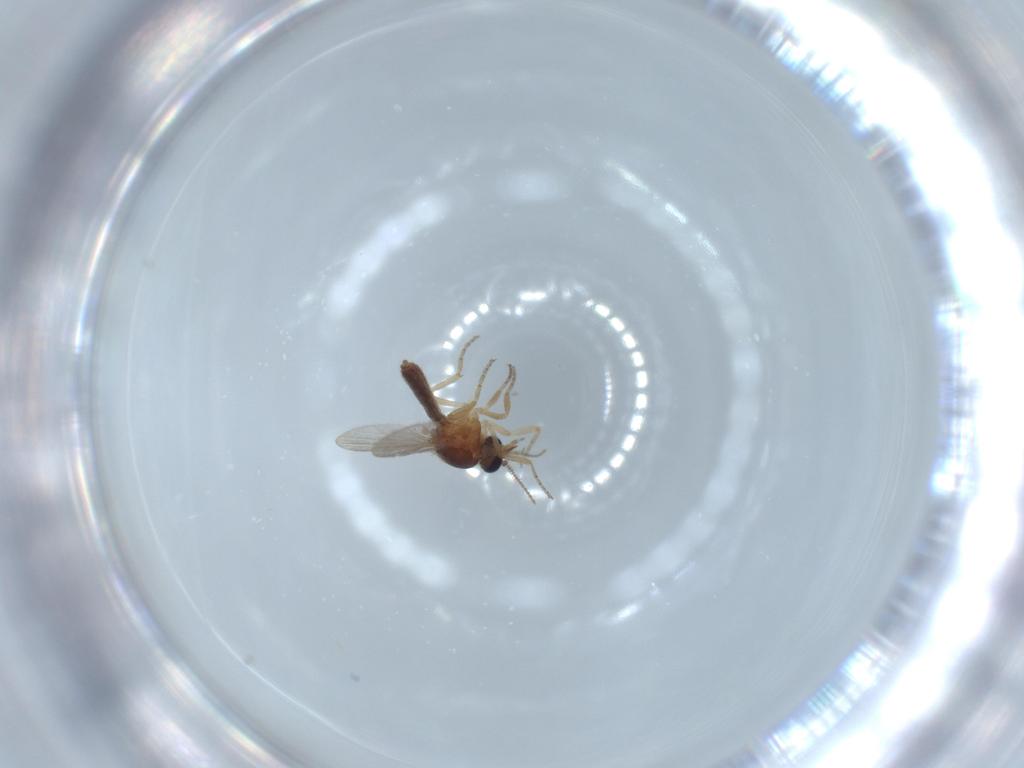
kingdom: Animalia
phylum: Arthropoda
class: Insecta
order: Diptera
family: Ceratopogonidae
